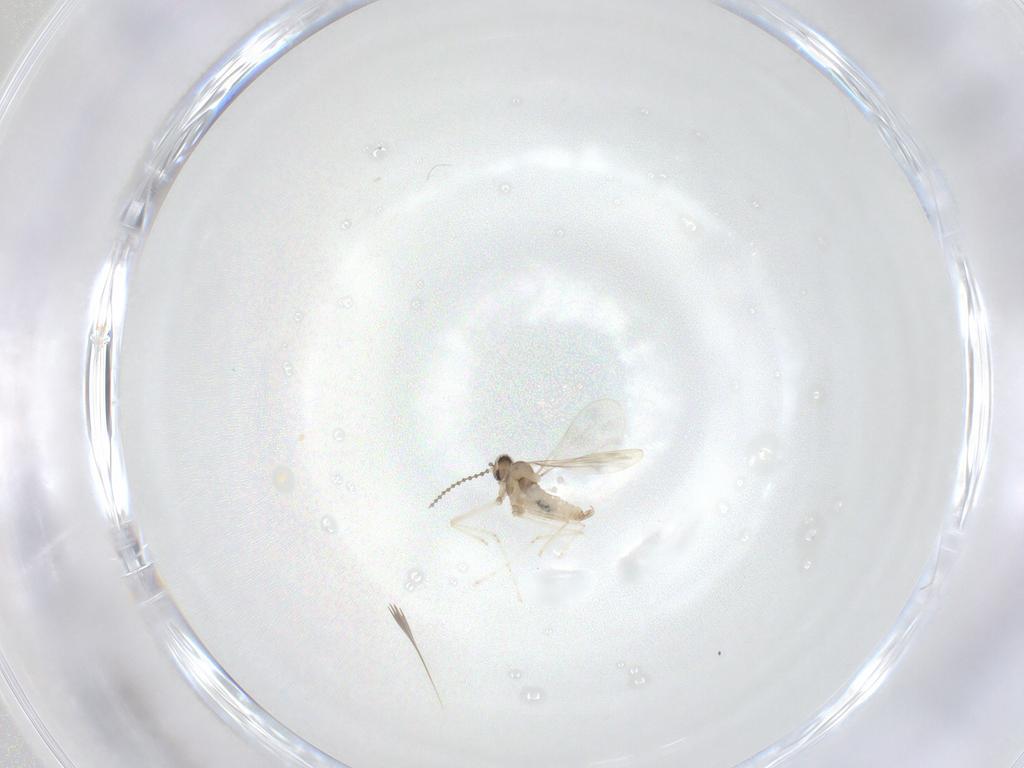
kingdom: Animalia
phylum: Arthropoda
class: Insecta
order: Diptera
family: Cecidomyiidae
